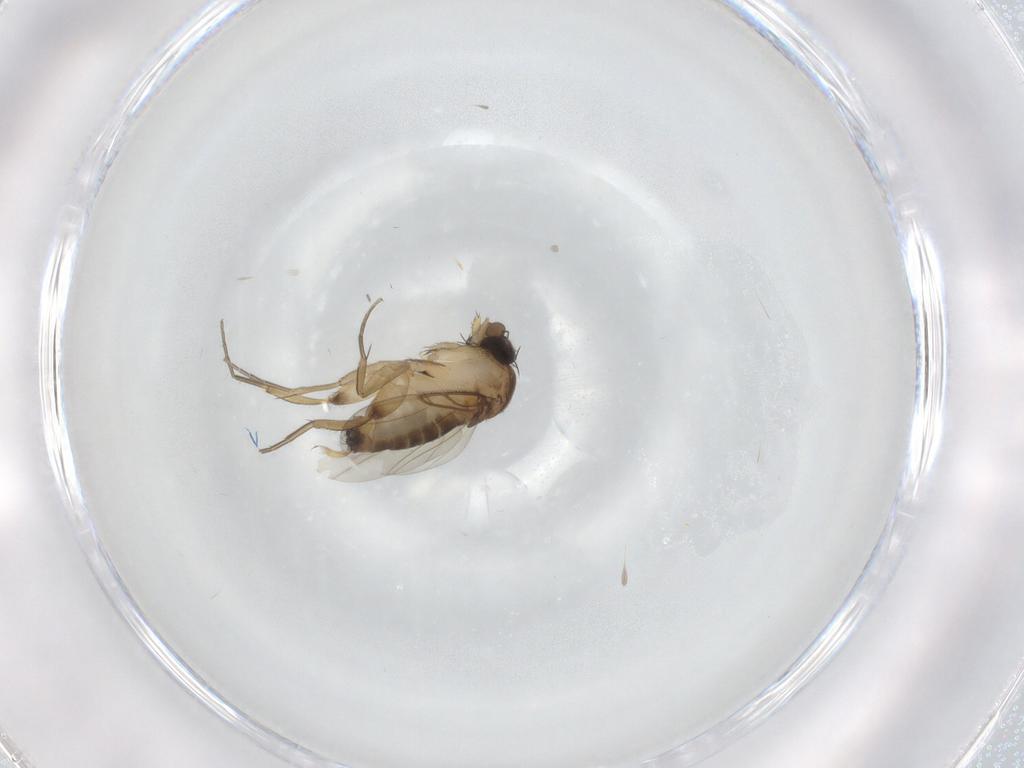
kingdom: Animalia
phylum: Arthropoda
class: Insecta
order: Diptera
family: Phoridae
